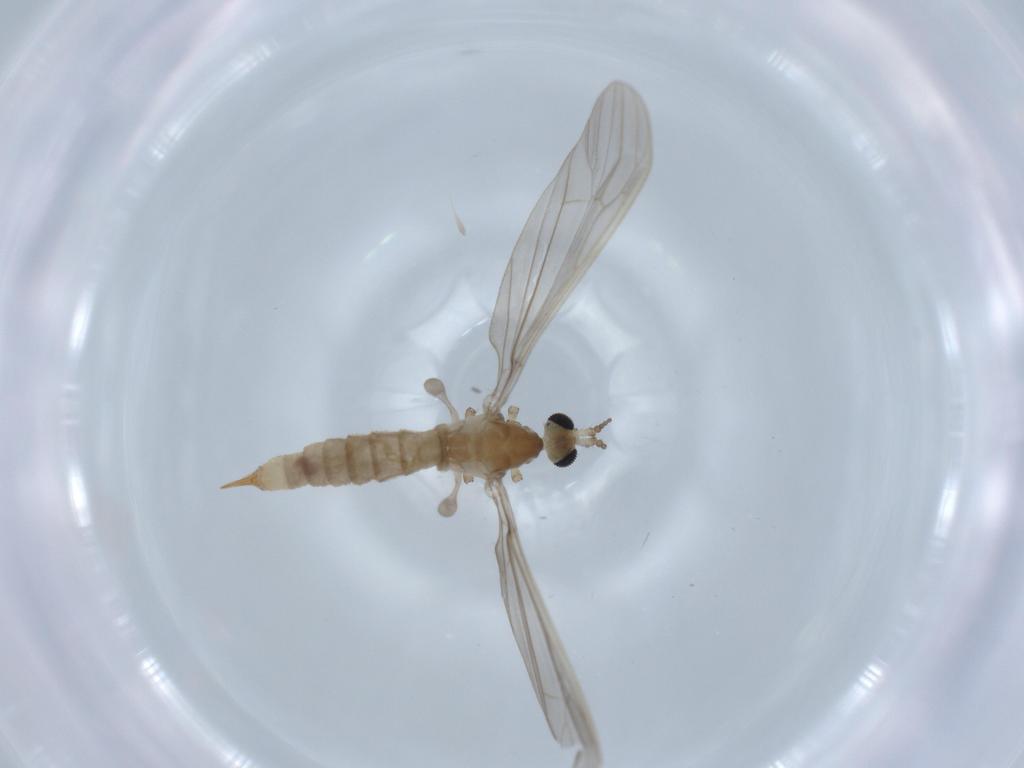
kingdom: Animalia
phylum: Arthropoda
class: Insecta
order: Diptera
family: Limoniidae
